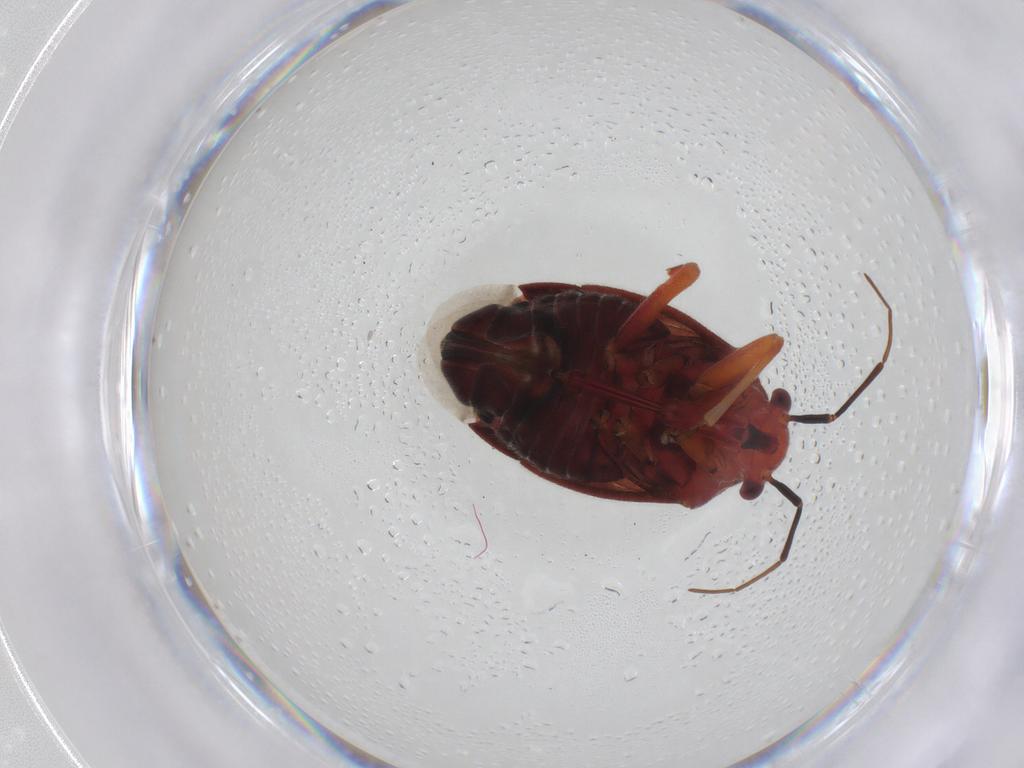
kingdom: Animalia
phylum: Arthropoda
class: Insecta
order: Hemiptera
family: Miridae
